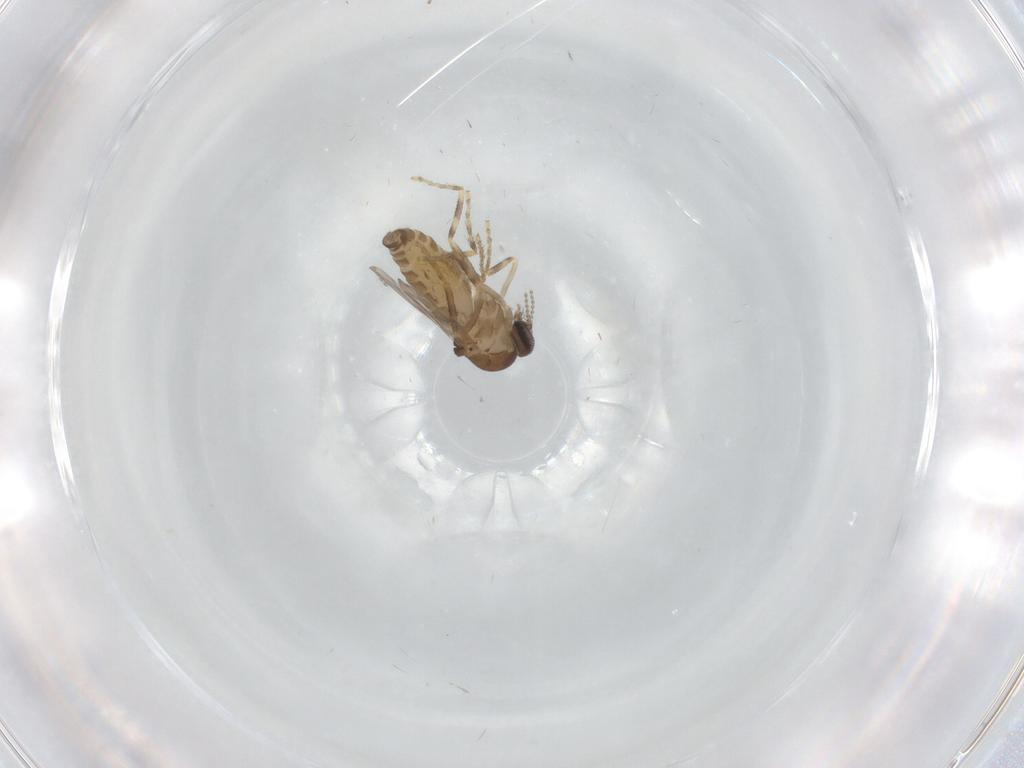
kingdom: Animalia
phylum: Arthropoda
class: Insecta
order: Diptera
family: Ceratopogonidae
